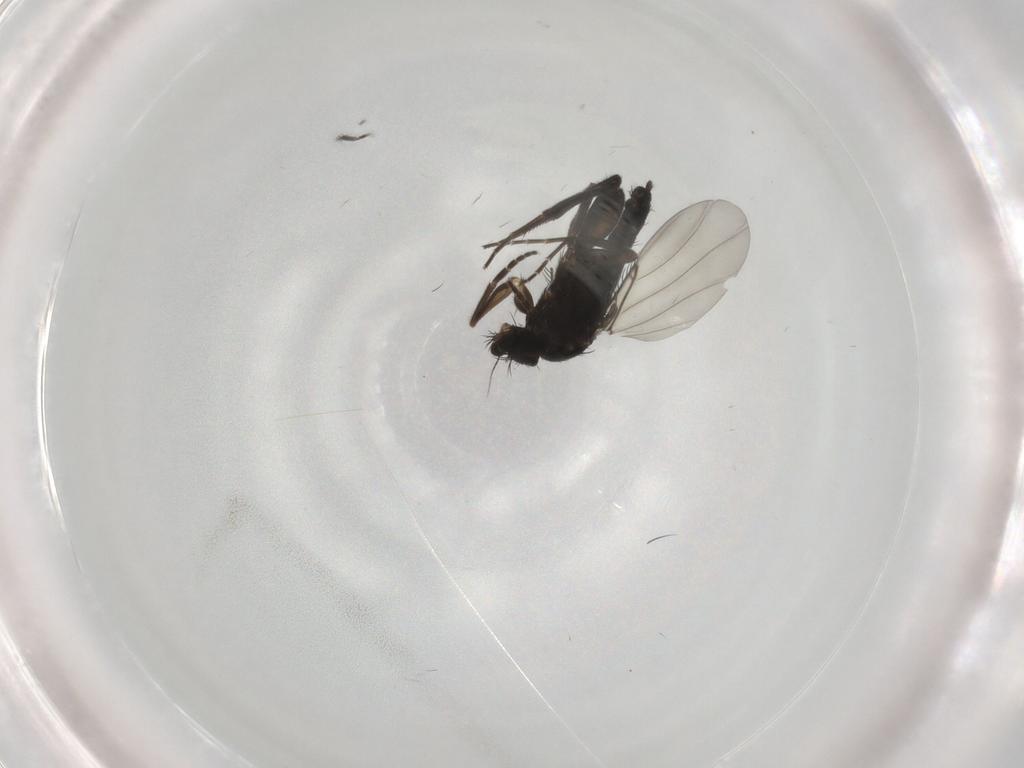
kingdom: Animalia
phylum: Arthropoda
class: Insecta
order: Diptera
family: Phoridae
